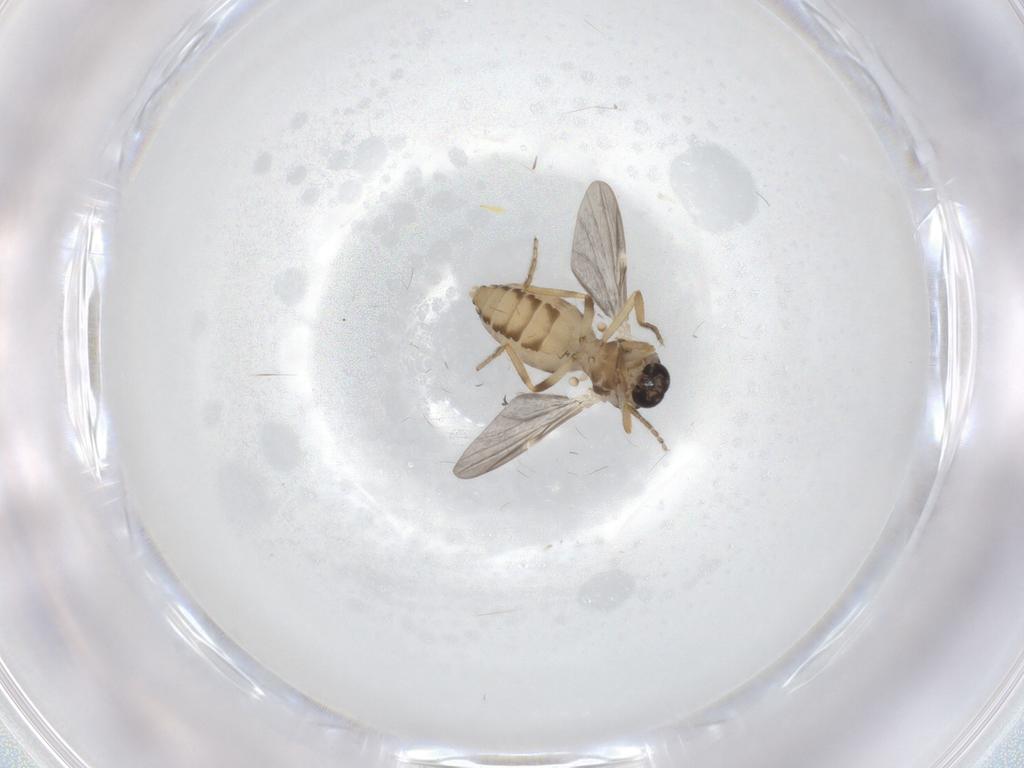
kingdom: Animalia
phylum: Arthropoda
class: Insecta
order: Diptera
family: Ceratopogonidae
